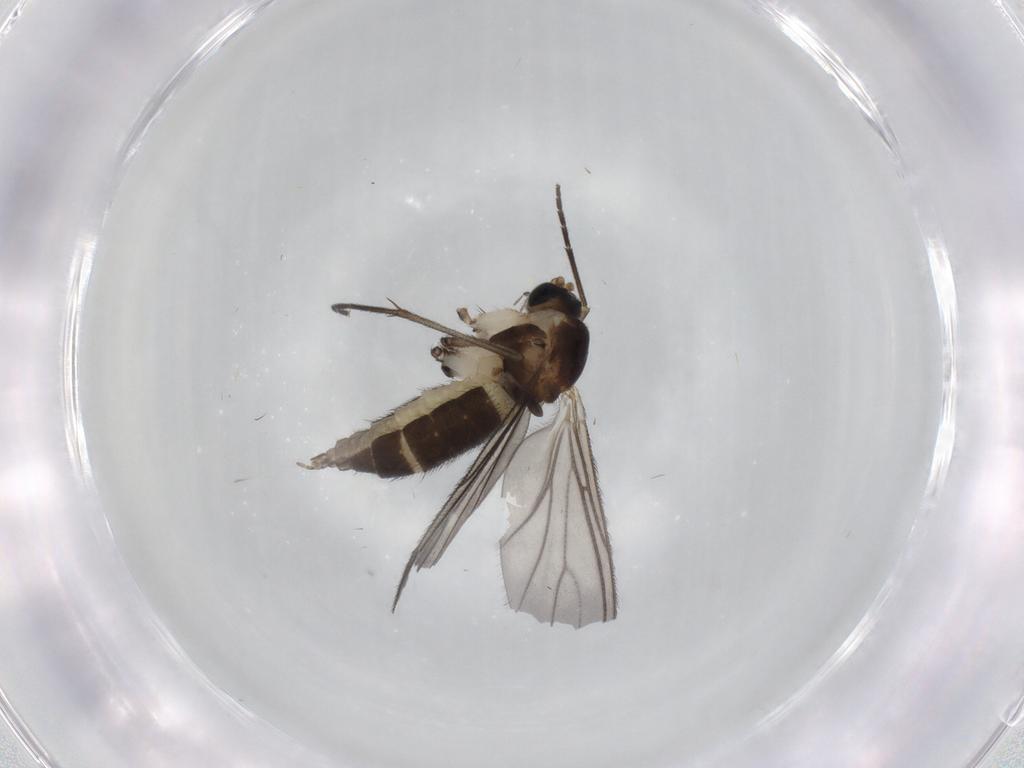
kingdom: Animalia
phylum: Arthropoda
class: Insecta
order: Diptera
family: Sciaridae
